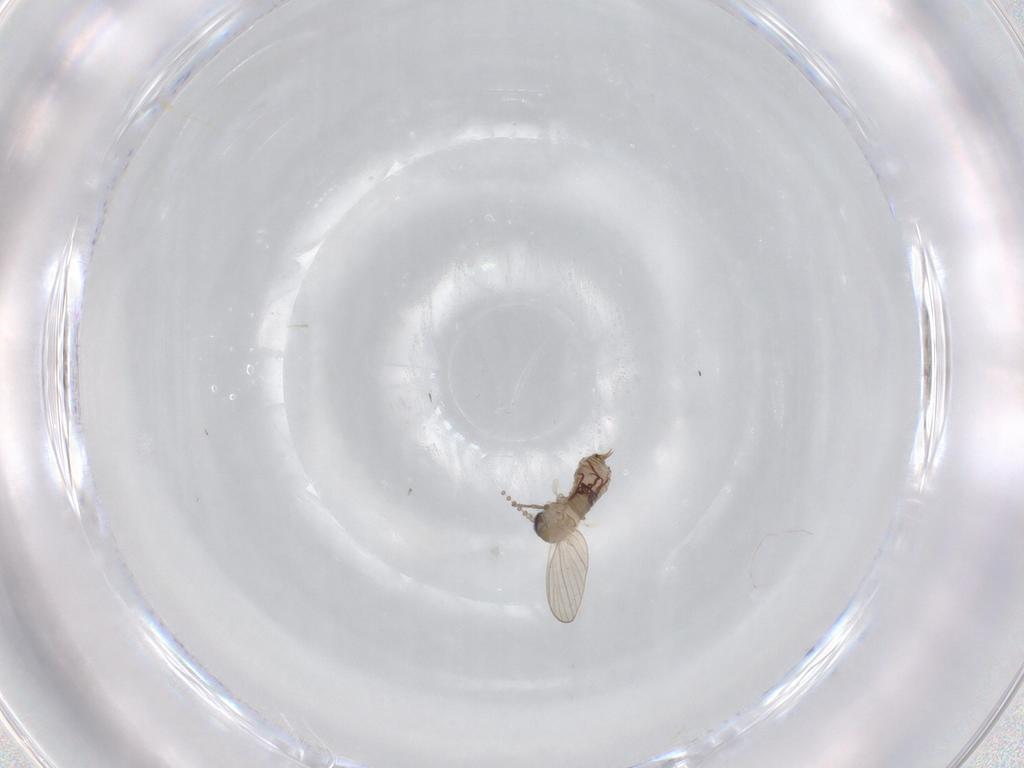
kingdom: Animalia
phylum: Arthropoda
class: Insecta
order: Diptera
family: Psychodidae
